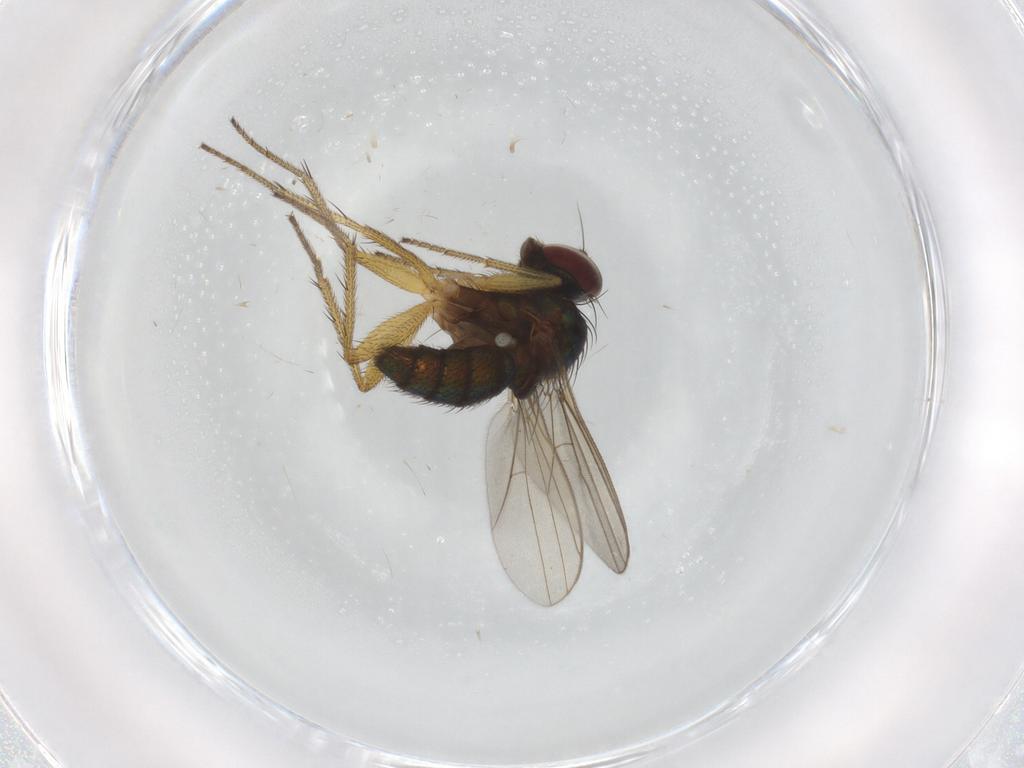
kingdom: Animalia
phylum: Arthropoda
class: Insecta
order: Diptera
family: Dolichopodidae
